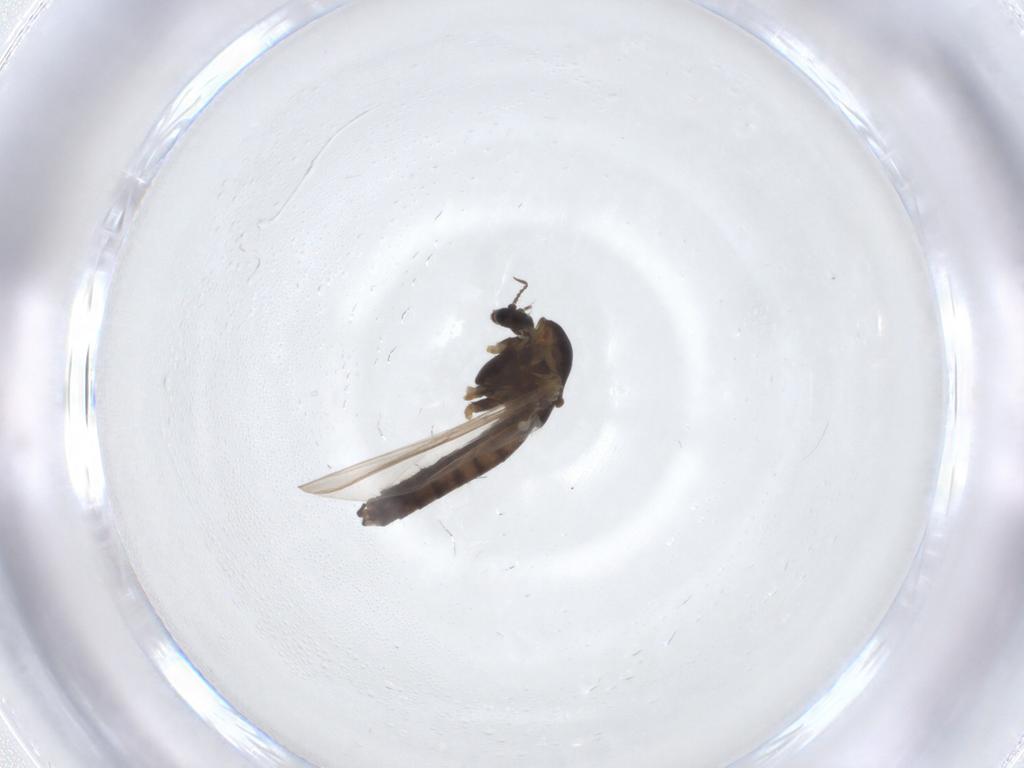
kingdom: Animalia
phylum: Arthropoda
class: Insecta
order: Diptera
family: Chironomidae
